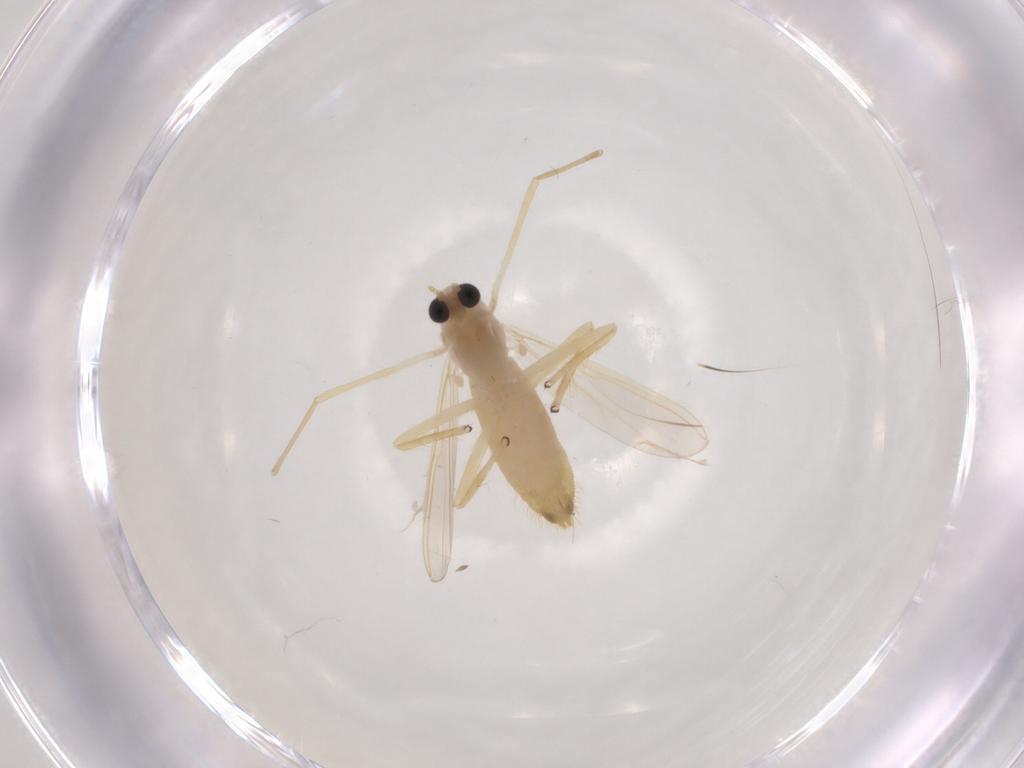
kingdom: Animalia
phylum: Arthropoda
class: Insecta
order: Diptera
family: Chironomidae
